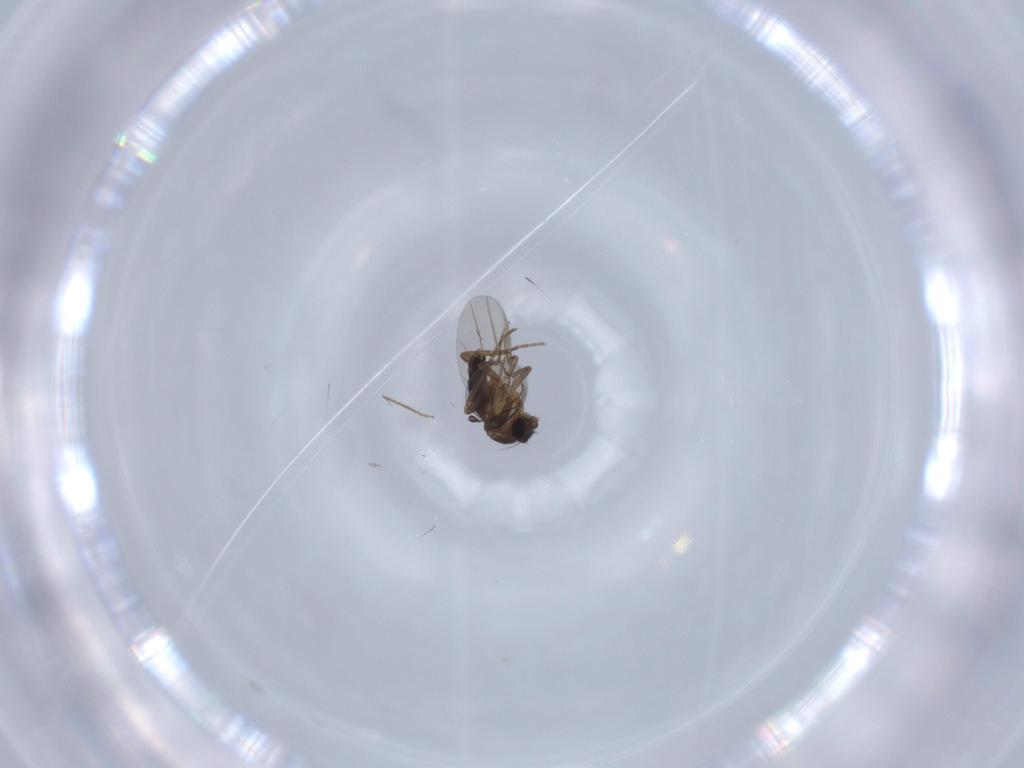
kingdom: Animalia
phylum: Arthropoda
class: Insecta
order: Diptera
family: Phoridae
